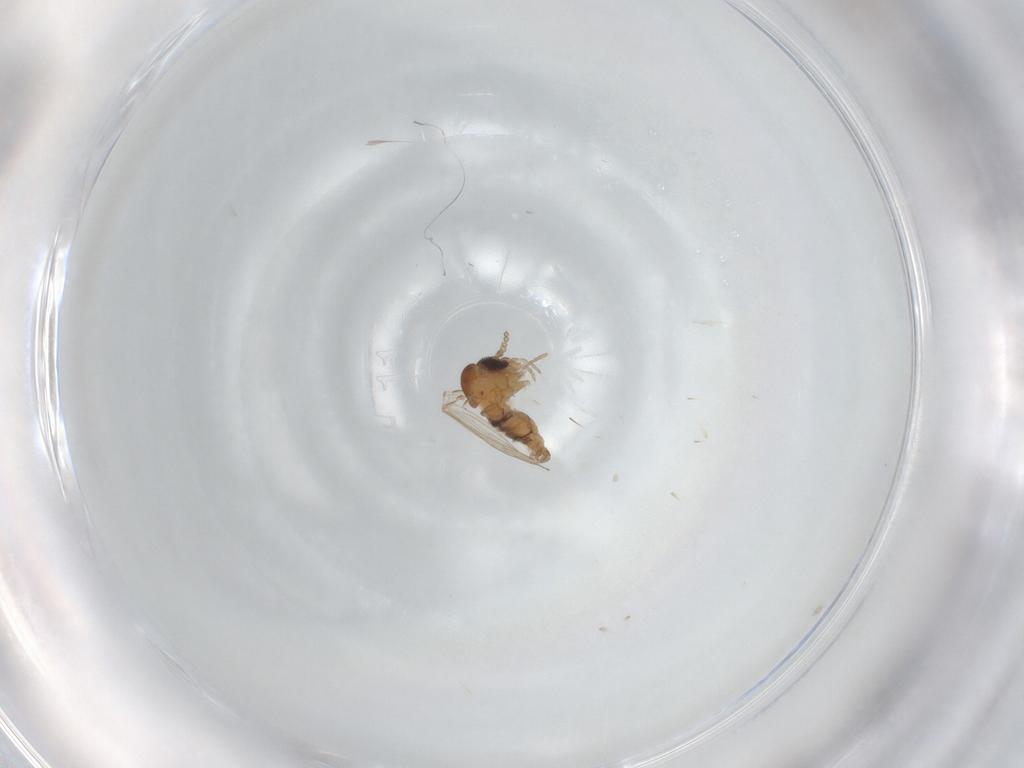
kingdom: Animalia
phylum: Arthropoda
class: Insecta
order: Diptera
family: Psychodidae
